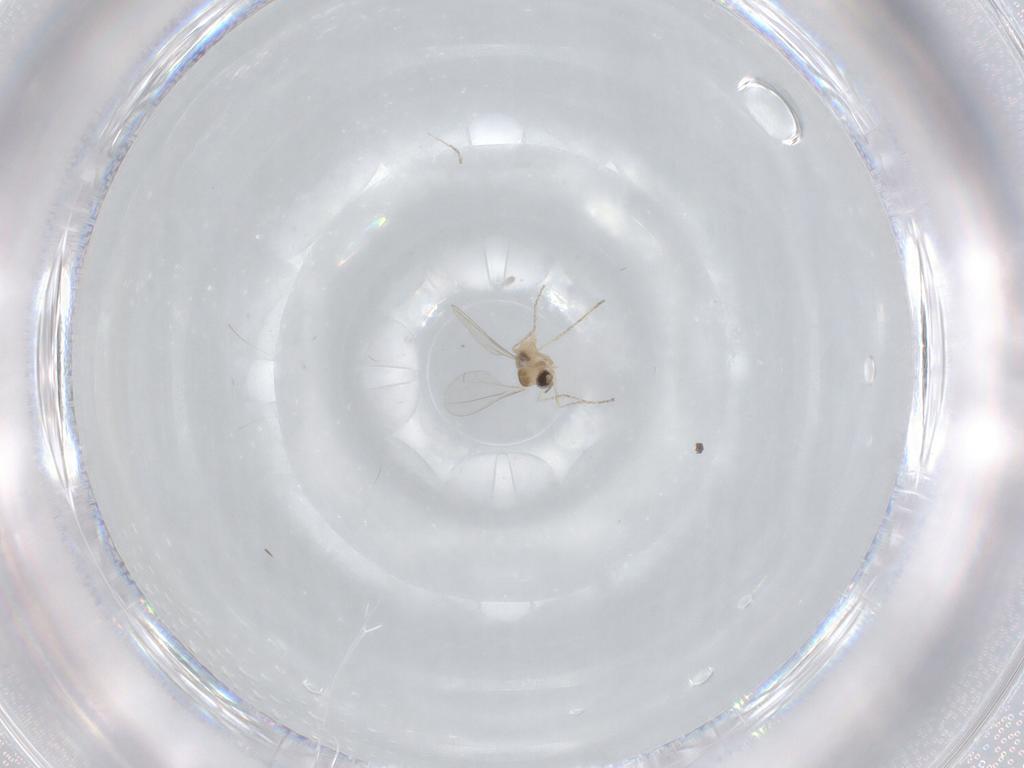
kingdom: Animalia
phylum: Arthropoda
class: Insecta
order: Diptera
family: Cecidomyiidae
